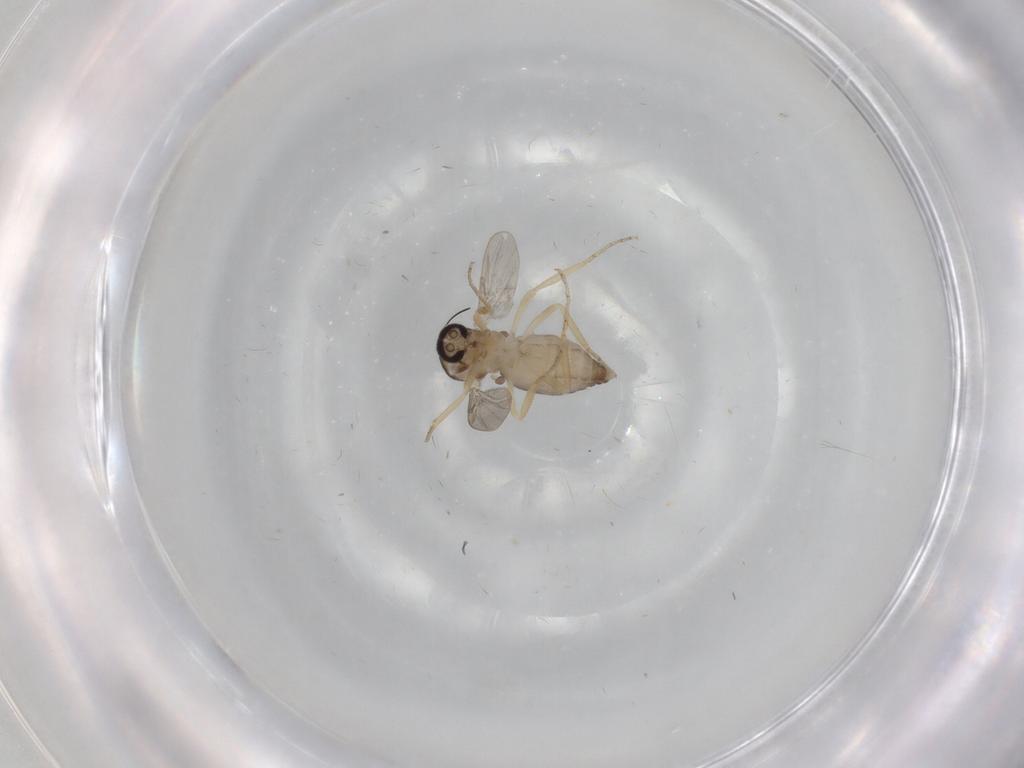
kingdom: Animalia
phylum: Arthropoda
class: Insecta
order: Diptera
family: Ceratopogonidae
